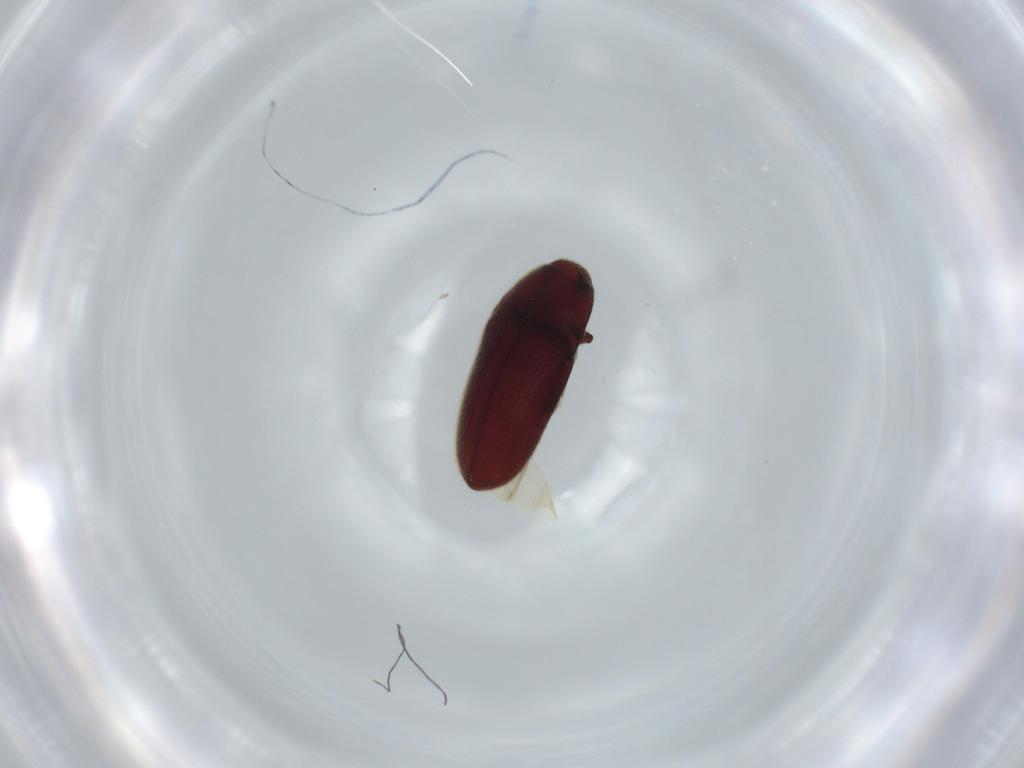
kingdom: Animalia
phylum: Arthropoda
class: Insecta
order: Coleoptera
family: Throscidae
